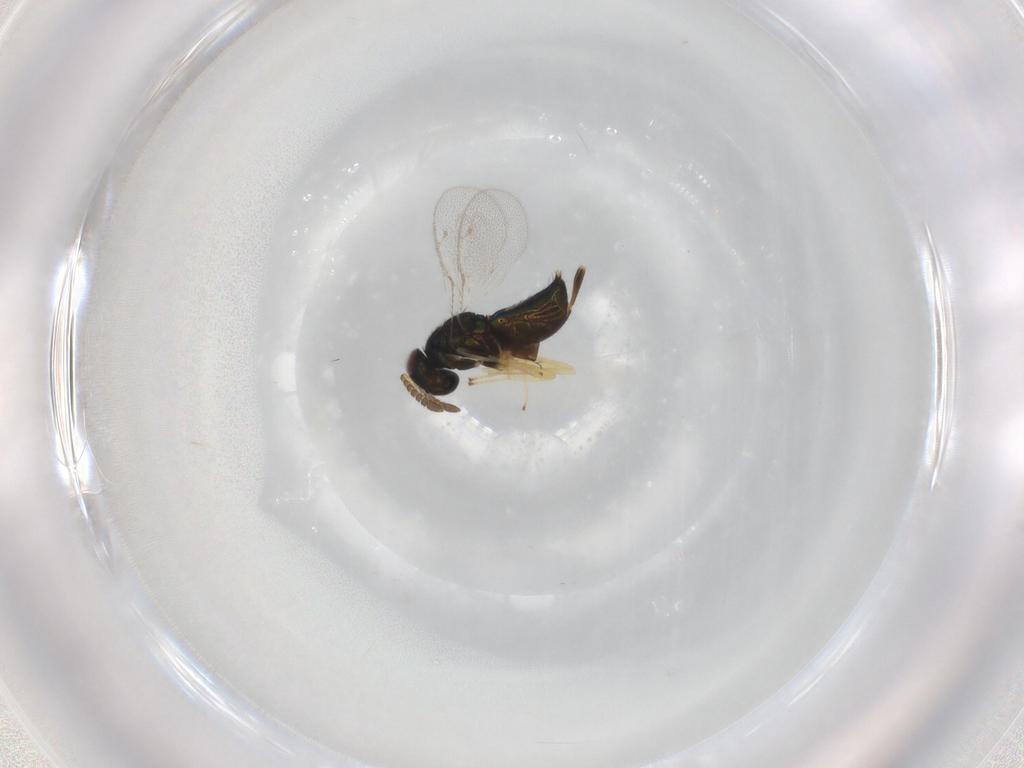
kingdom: Animalia
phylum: Arthropoda
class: Insecta
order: Hymenoptera
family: Pirenidae
